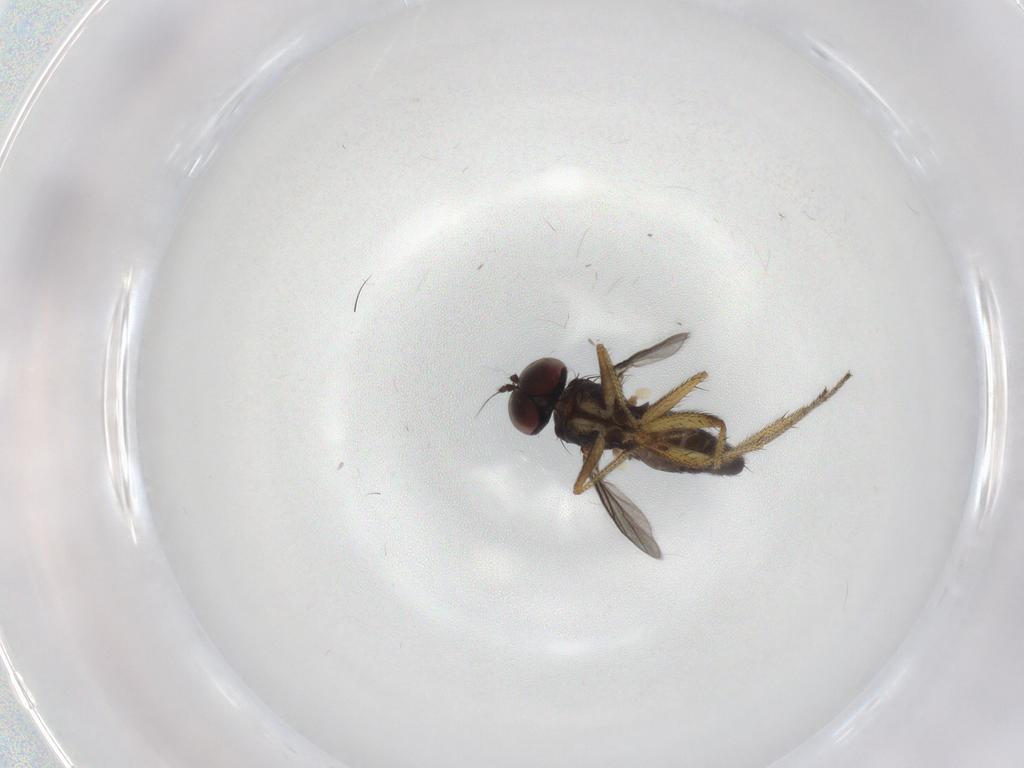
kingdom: Animalia
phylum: Arthropoda
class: Insecta
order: Diptera
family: Dolichopodidae
